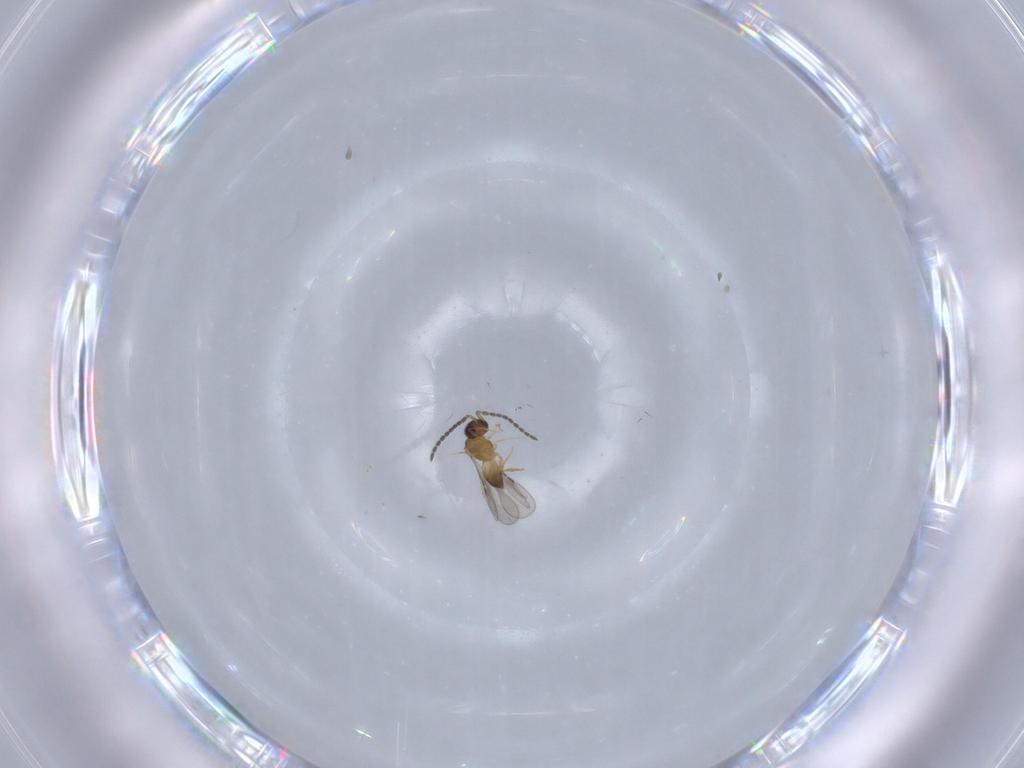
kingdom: Animalia
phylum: Arthropoda
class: Insecta
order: Hymenoptera
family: Ceraphronidae
